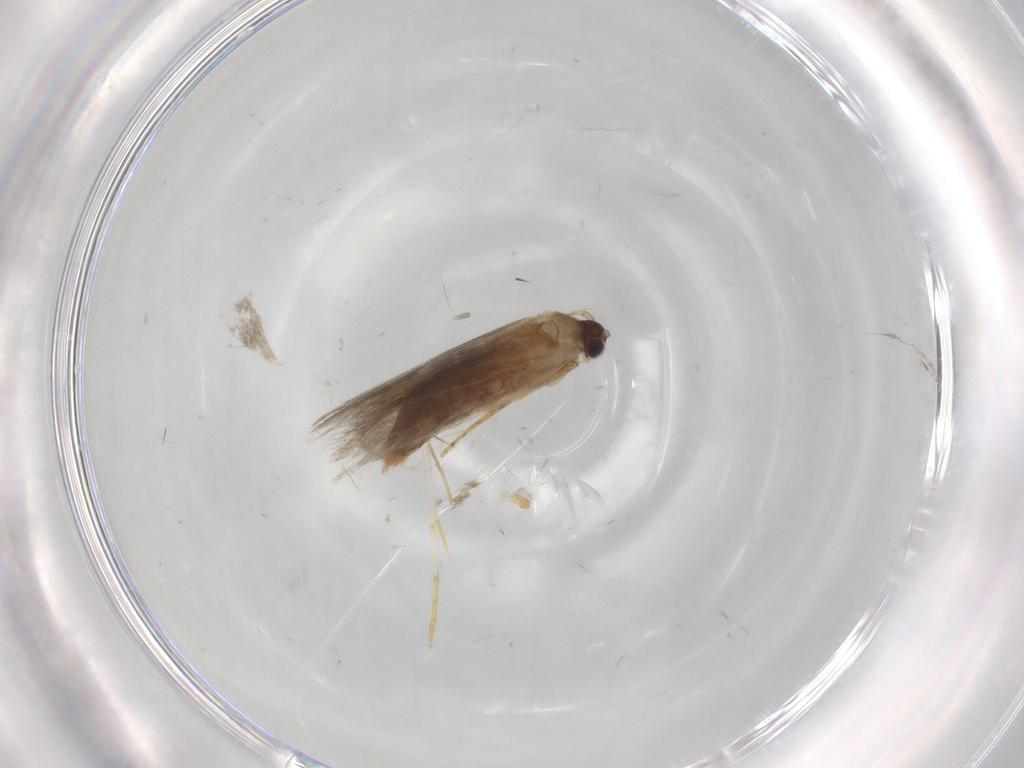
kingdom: Animalia
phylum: Arthropoda
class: Insecta
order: Lepidoptera
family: Tineidae
